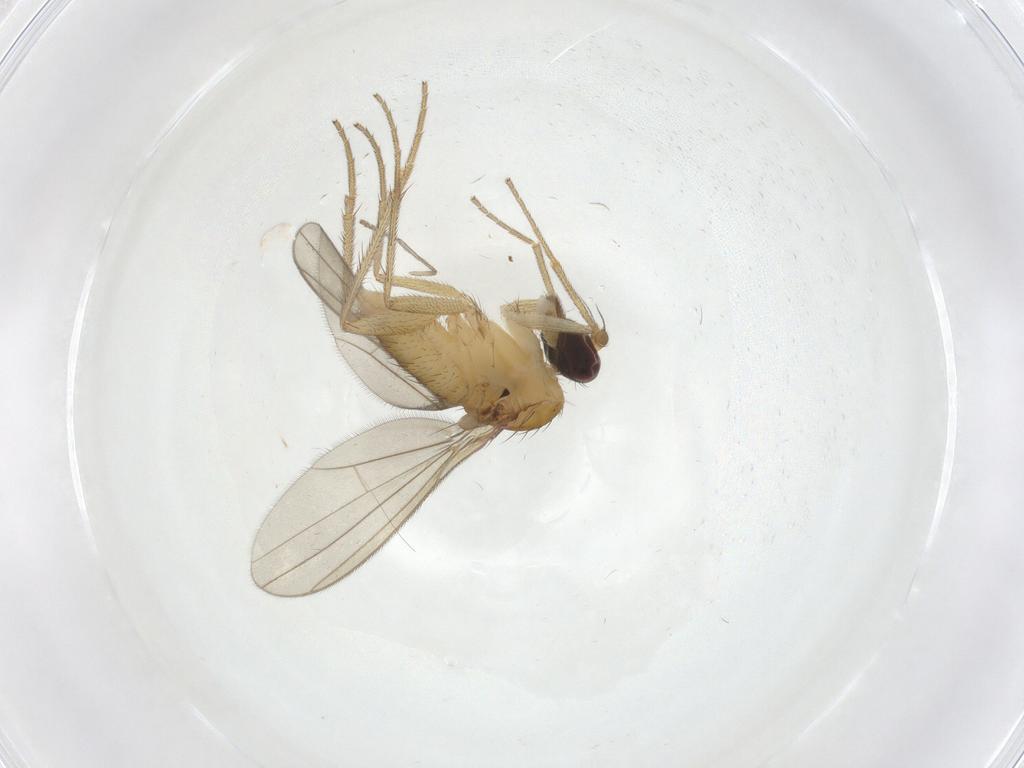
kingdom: Animalia
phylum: Arthropoda
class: Insecta
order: Diptera
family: Dolichopodidae
